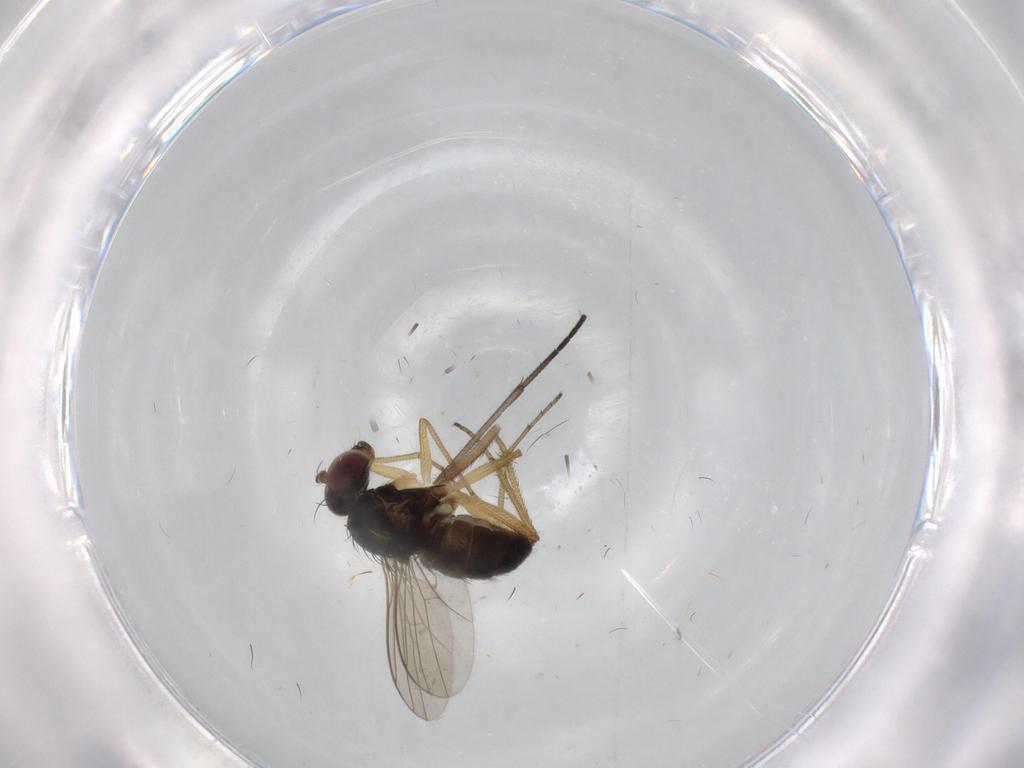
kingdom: Animalia
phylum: Arthropoda
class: Insecta
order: Diptera
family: Dolichopodidae
